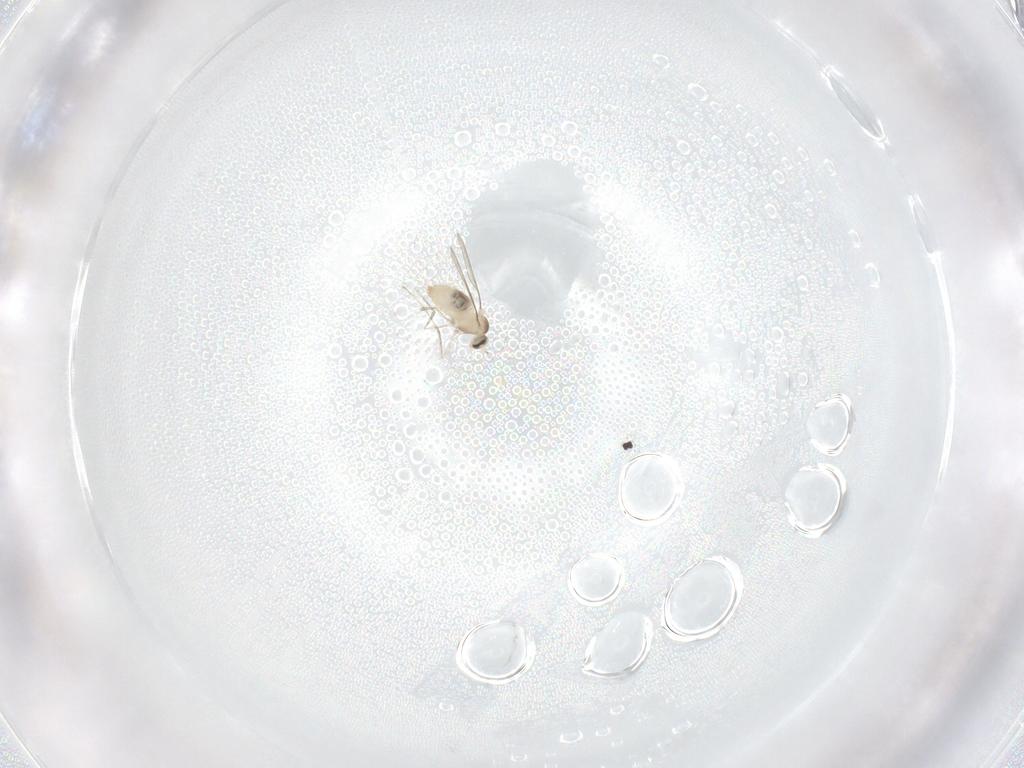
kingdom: Animalia
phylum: Arthropoda
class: Insecta
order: Diptera
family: Cecidomyiidae
